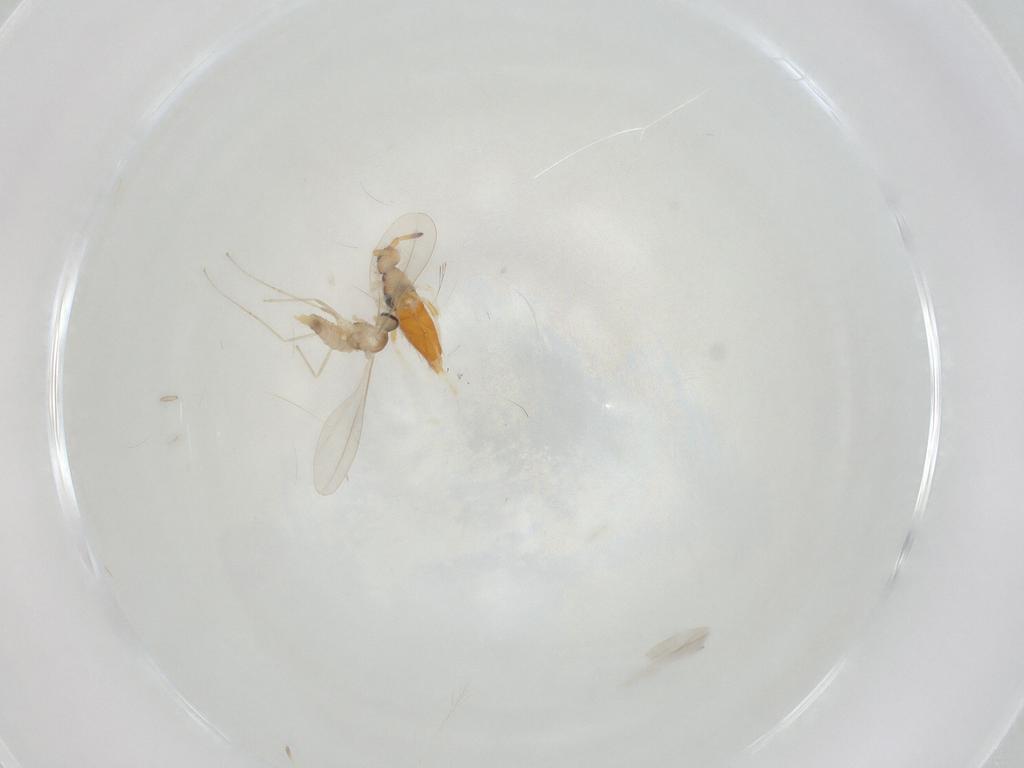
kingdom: Animalia
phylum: Arthropoda
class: Insecta
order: Diptera
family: Cecidomyiidae
